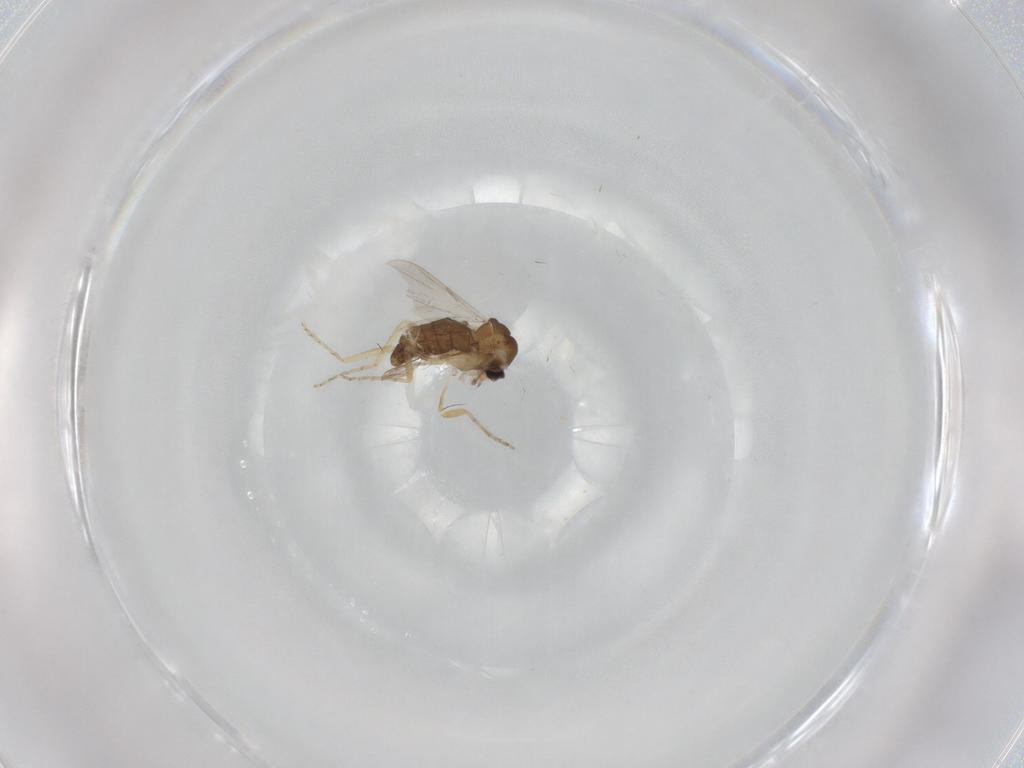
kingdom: Animalia
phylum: Arthropoda
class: Insecta
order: Diptera
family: Ceratopogonidae
